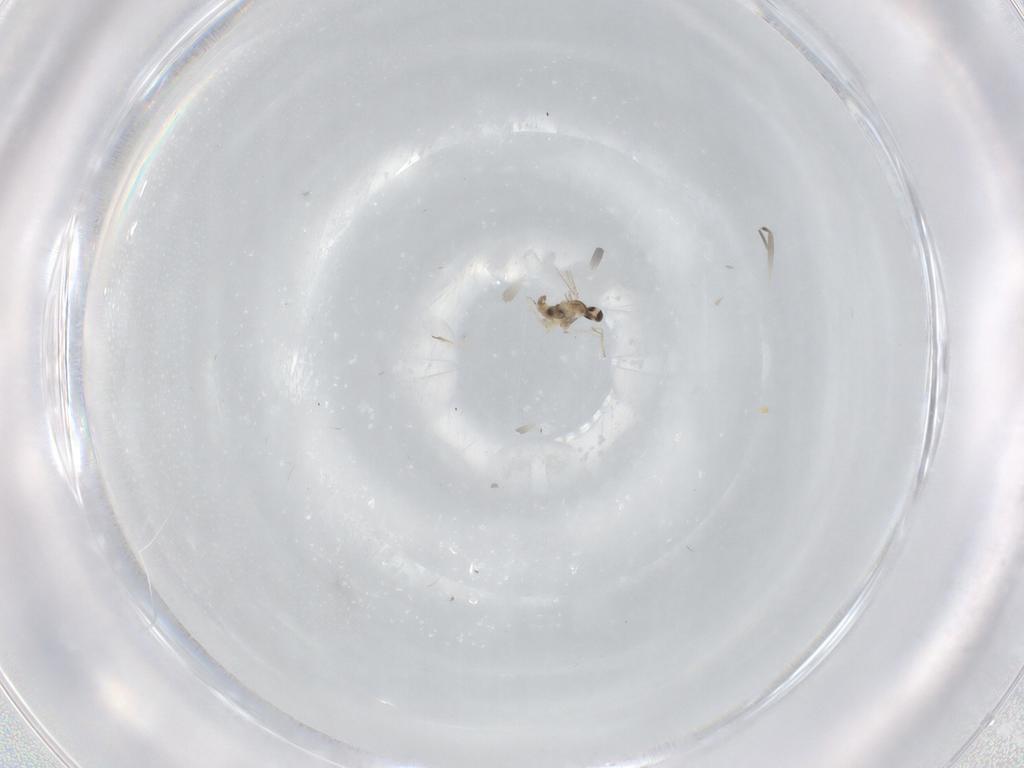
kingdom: Animalia
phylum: Arthropoda
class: Insecta
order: Diptera
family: Cecidomyiidae
